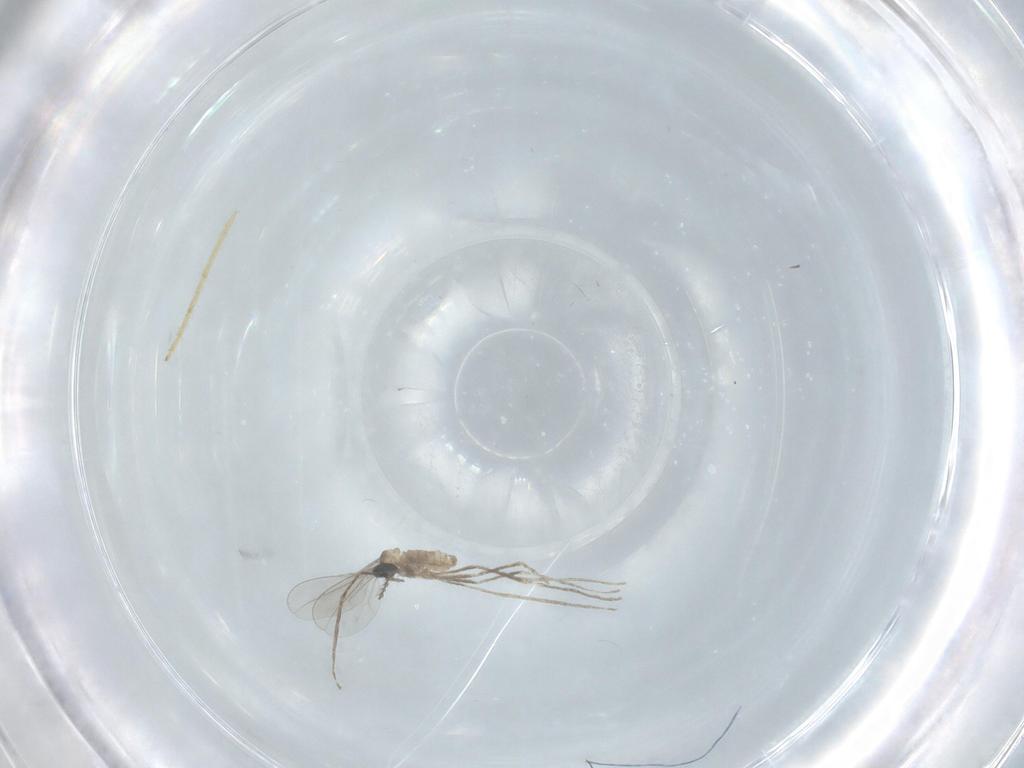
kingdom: Animalia
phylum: Arthropoda
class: Insecta
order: Diptera
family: Chironomidae
